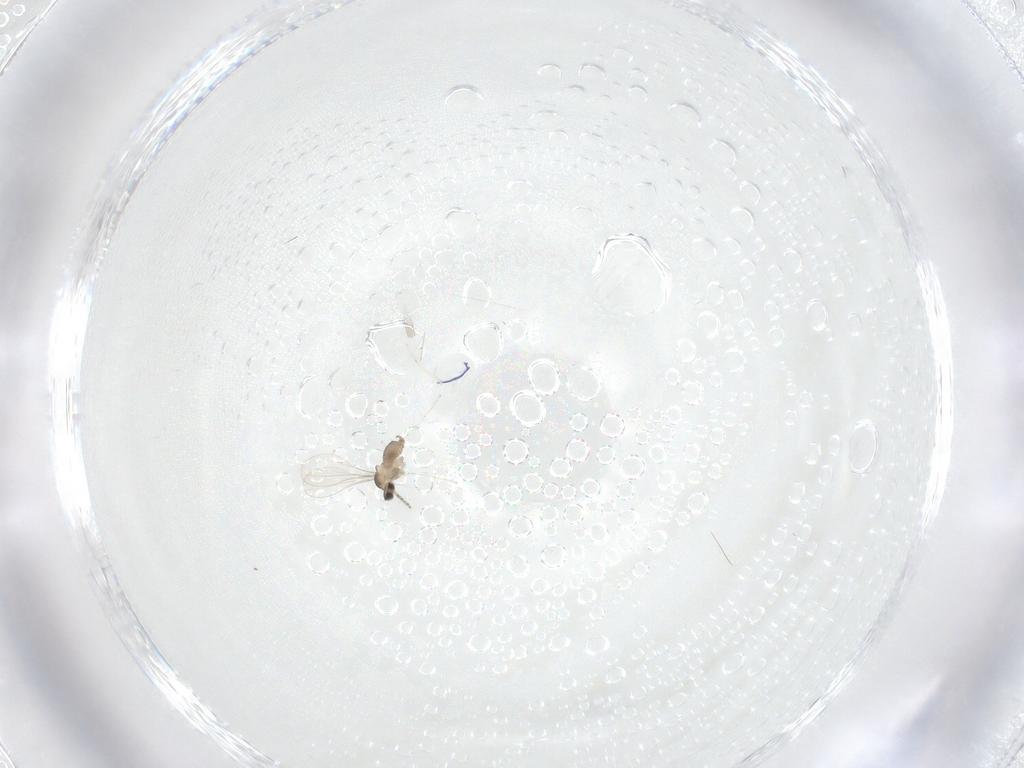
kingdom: Animalia
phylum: Arthropoda
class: Insecta
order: Diptera
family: Cecidomyiidae
